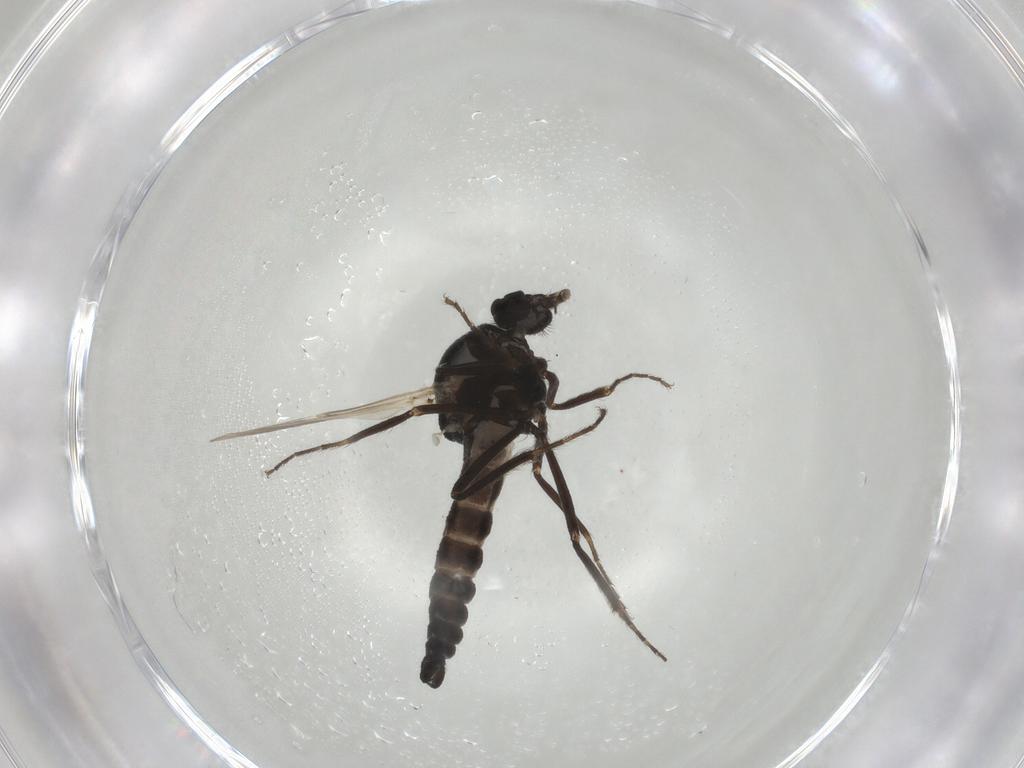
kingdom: Animalia
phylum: Arthropoda
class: Insecta
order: Diptera
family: Ceratopogonidae
